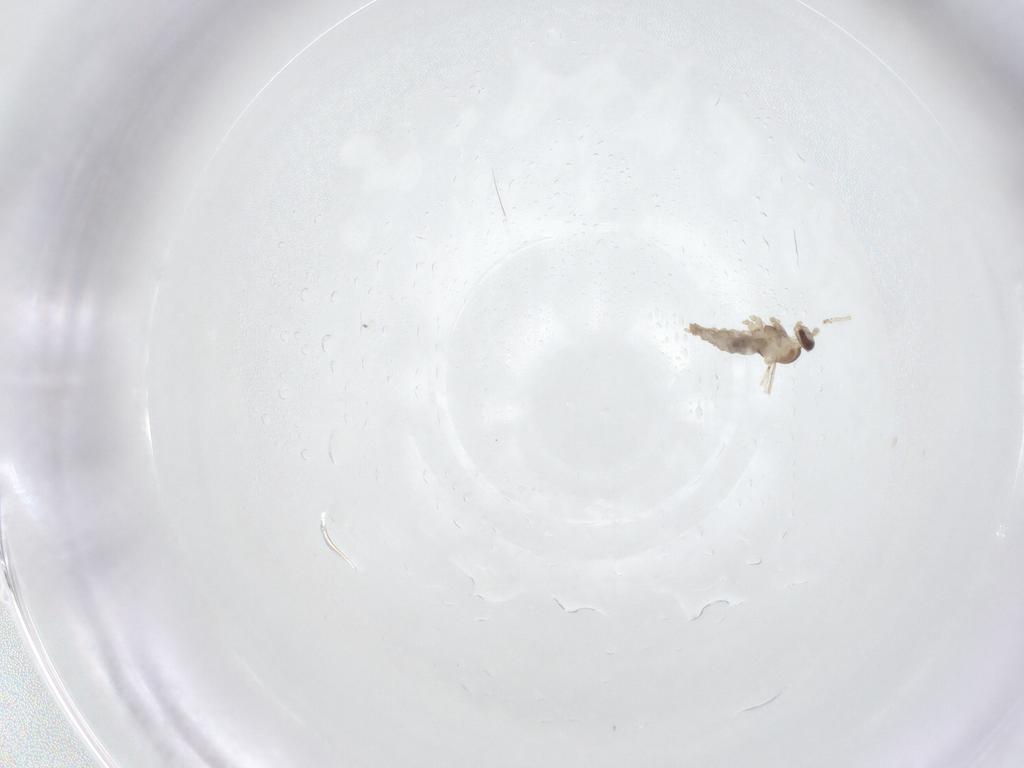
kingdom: Animalia
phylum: Arthropoda
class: Insecta
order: Diptera
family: Cecidomyiidae
